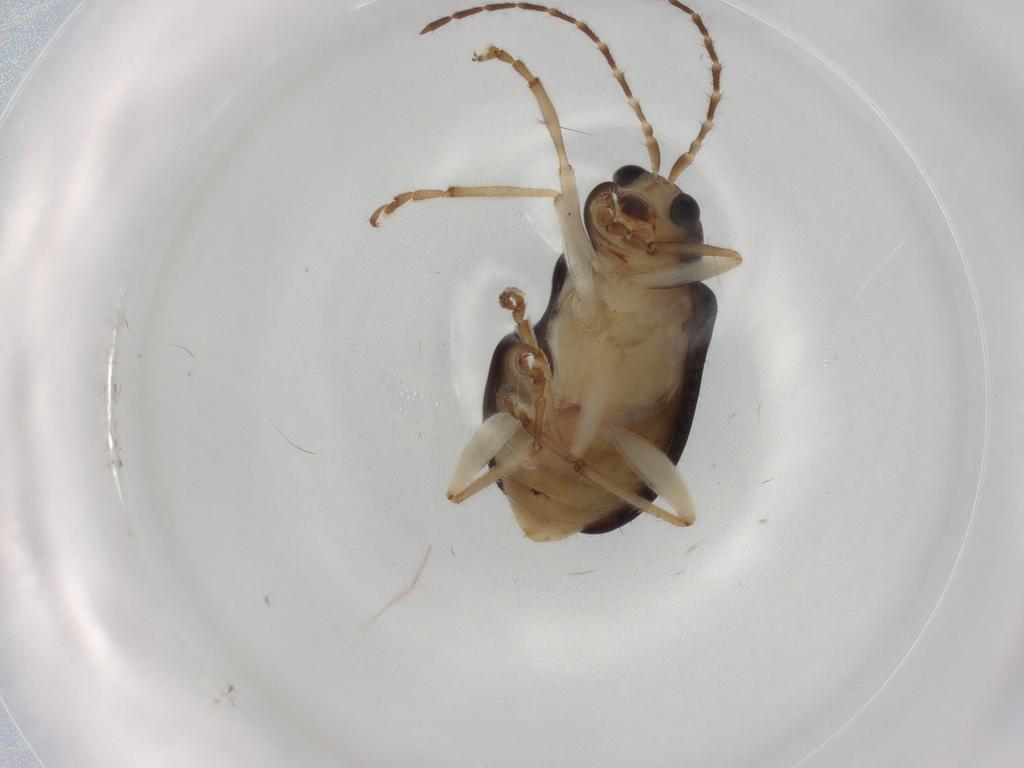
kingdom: Animalia
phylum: Arthropoda
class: Insecta
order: Coleoptera
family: Chrysomelidae
